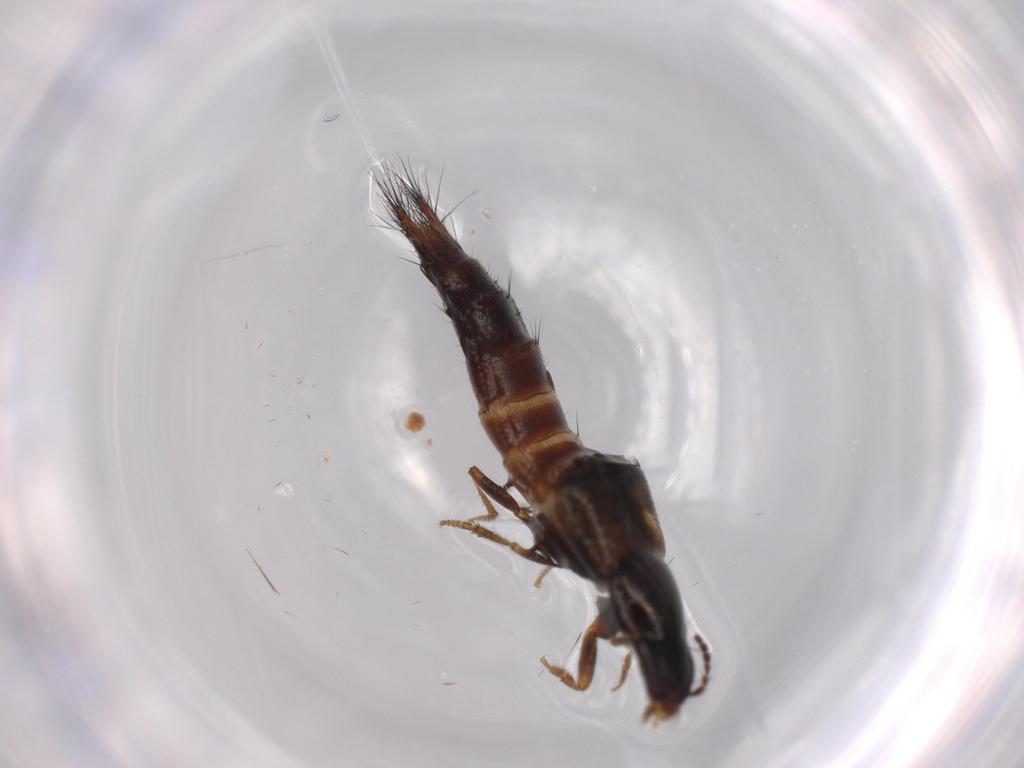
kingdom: Animalia
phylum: Arthropoda
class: Insecta
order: Coleoptera
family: Staphylinidae
